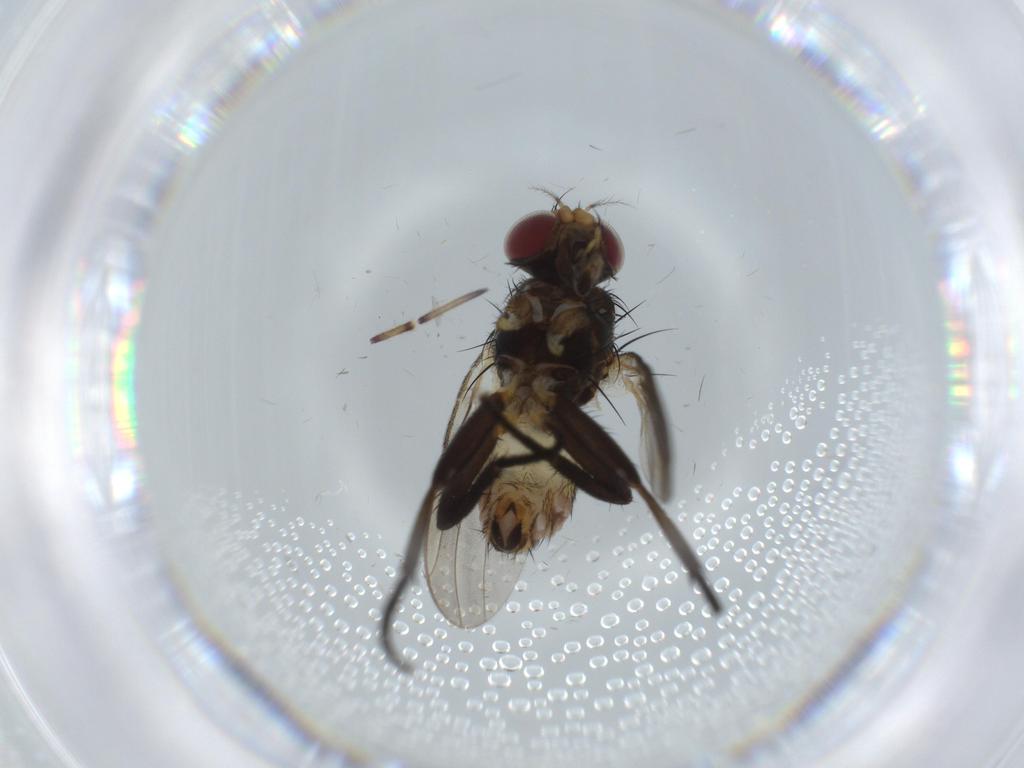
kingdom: Animalia
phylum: Arthropoda
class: Insecta
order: Diptera
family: Anthomyiidae
